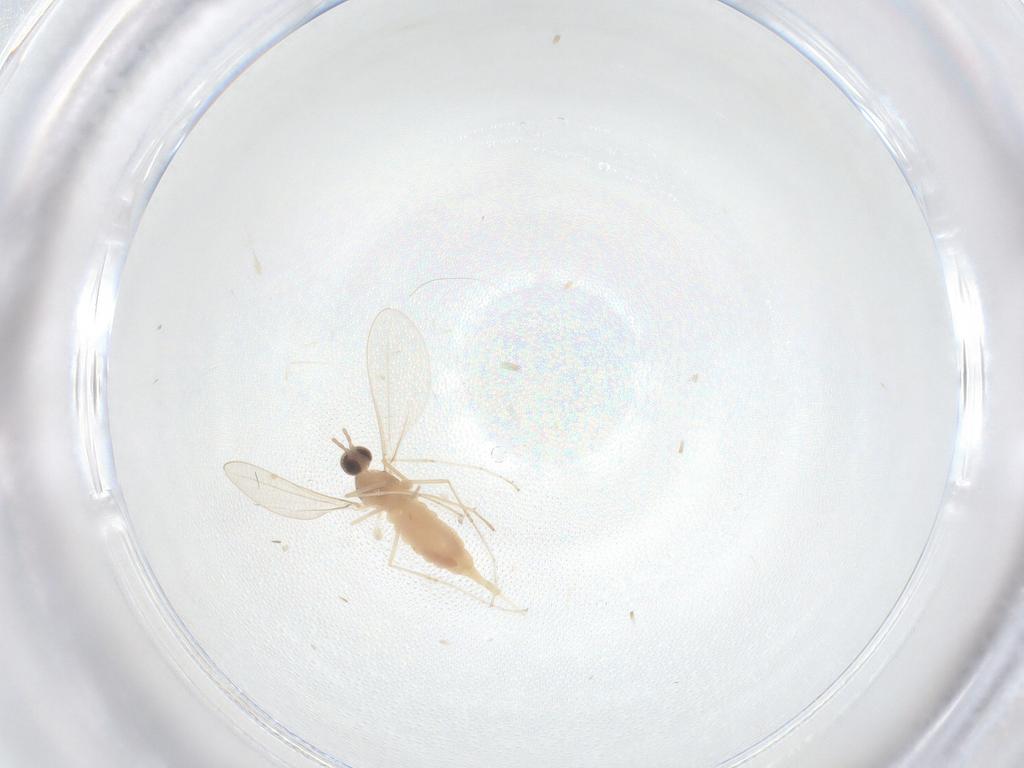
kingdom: Animalia
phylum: Arthropoda
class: Insecta
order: Diptera
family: Cecidomyiidae
